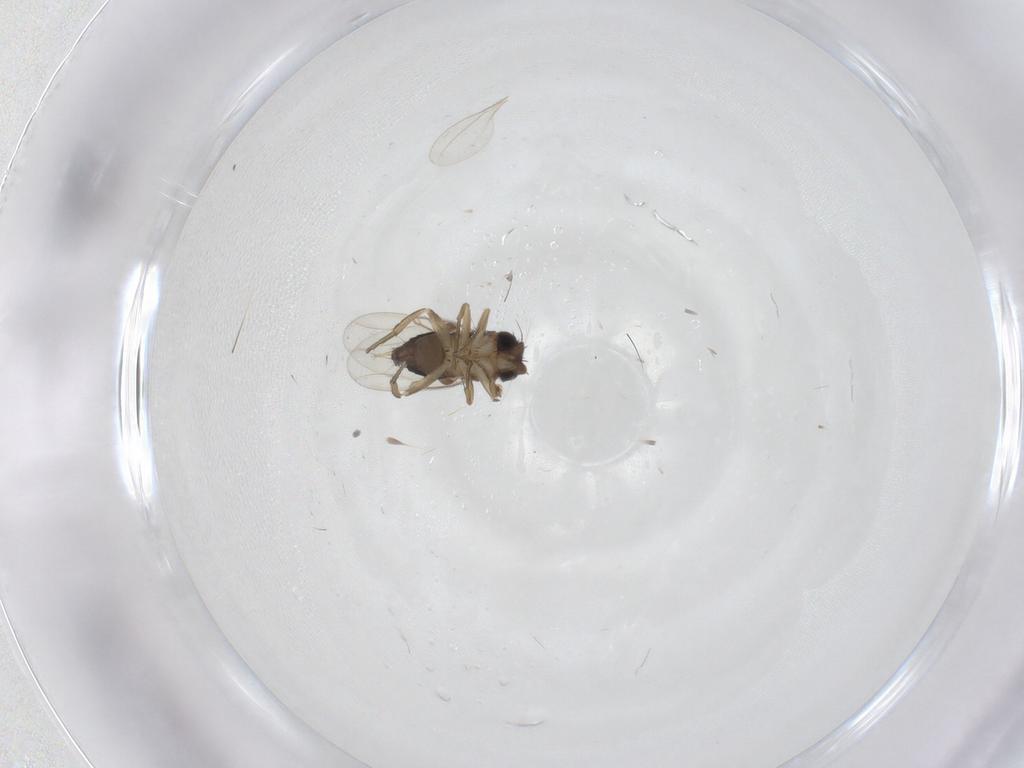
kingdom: Animalia
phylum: Arthropoda
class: Insecta
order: Diptera
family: Phoridae
